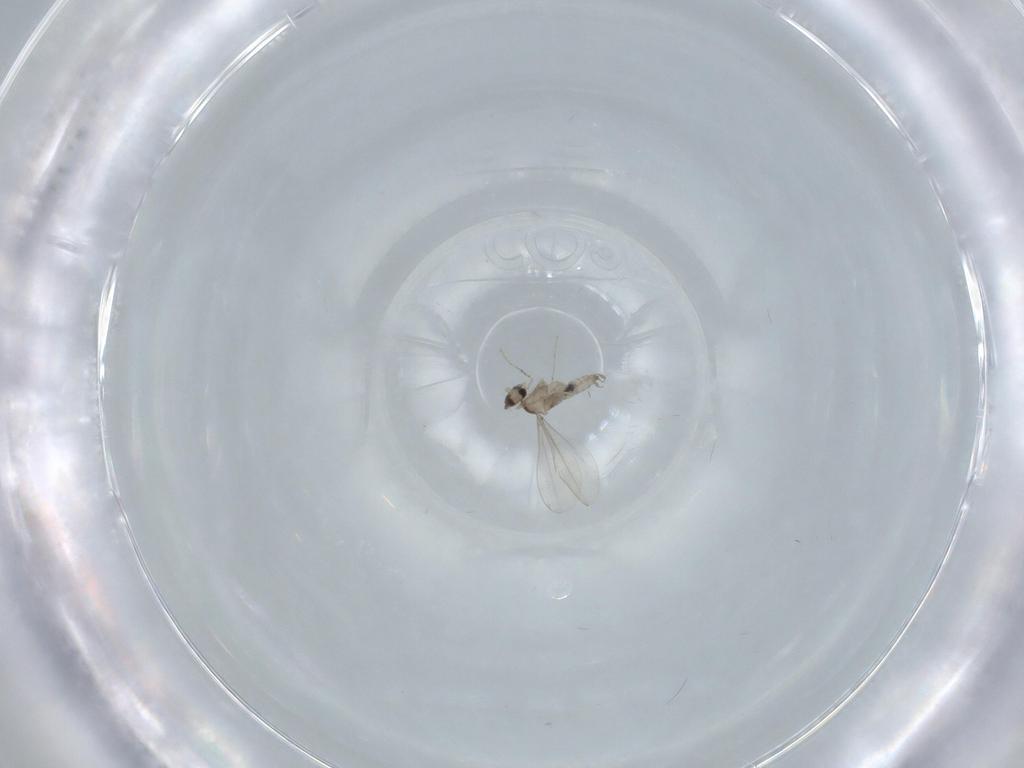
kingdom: Animalia
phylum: Arthropoda
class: Insecta
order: Diptera
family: Cecidomyiidae
